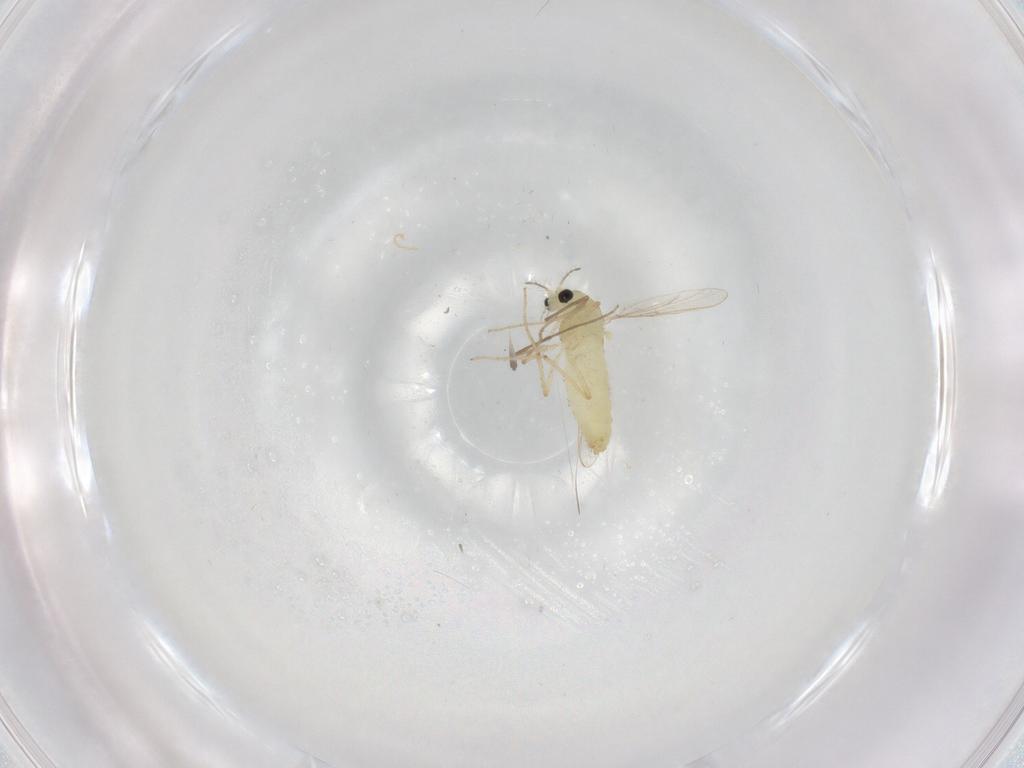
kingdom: Animalia
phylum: Arthropoda
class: Insecta
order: Diptera
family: Chironomidae
